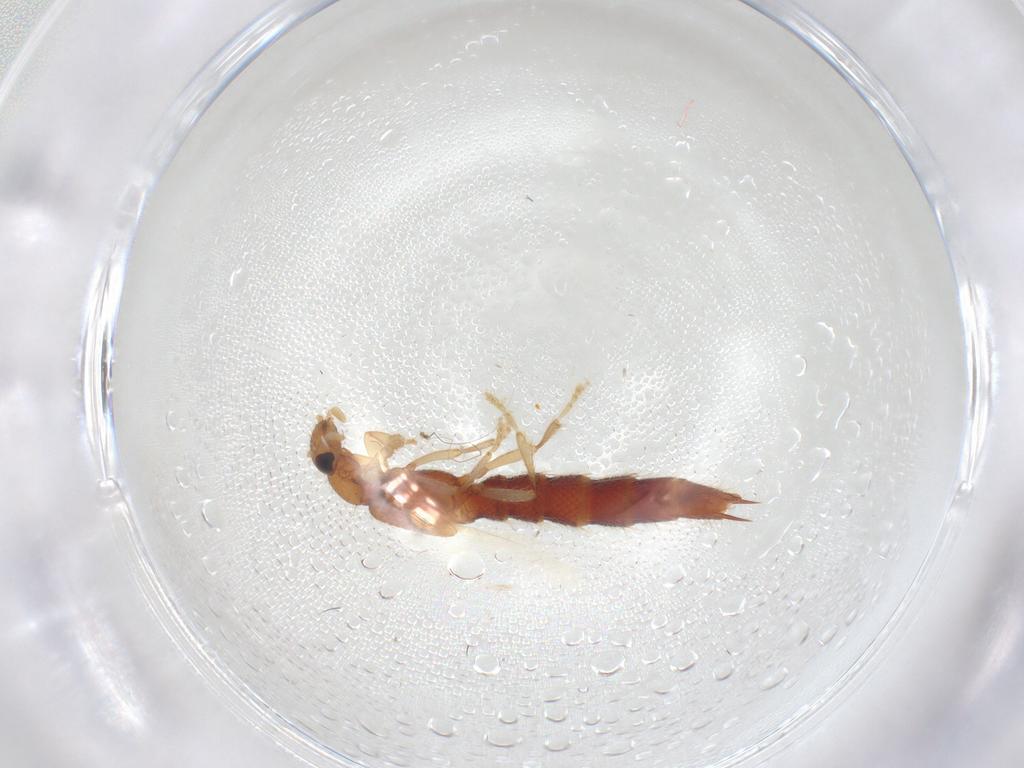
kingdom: Animalia
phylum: Arthropoda
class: Insecta
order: Coleoptera
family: Staphylinidae
